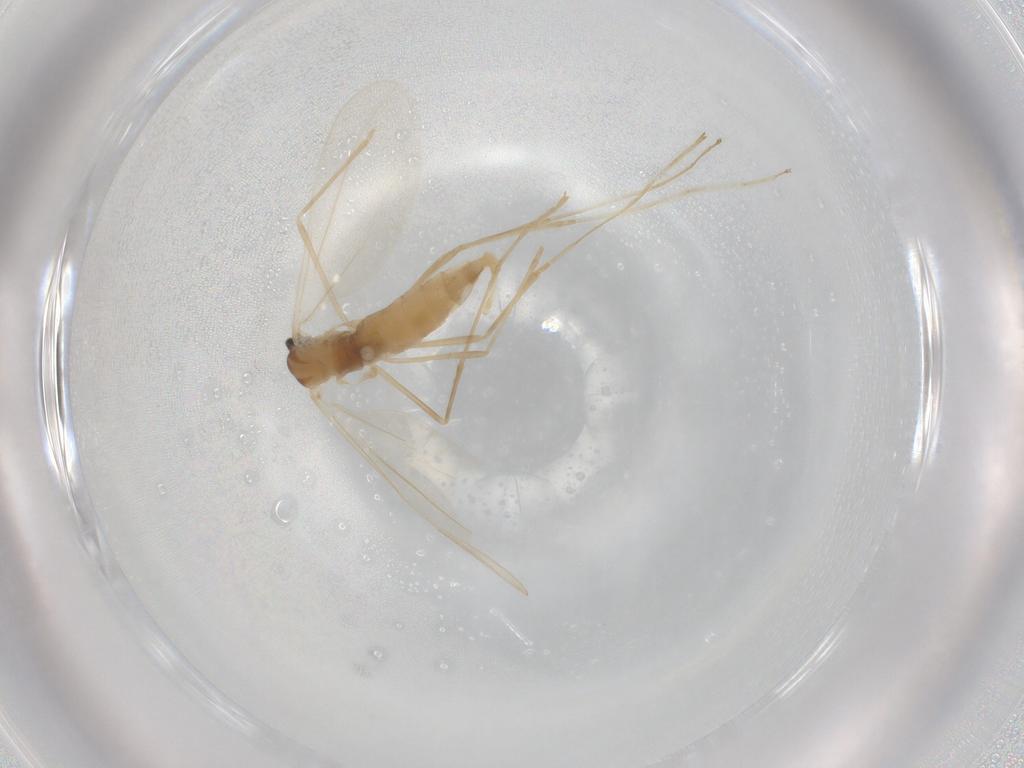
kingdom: Animalia
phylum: Arthropoda
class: Insecta
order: Diptera
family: Cecidomyiidae
